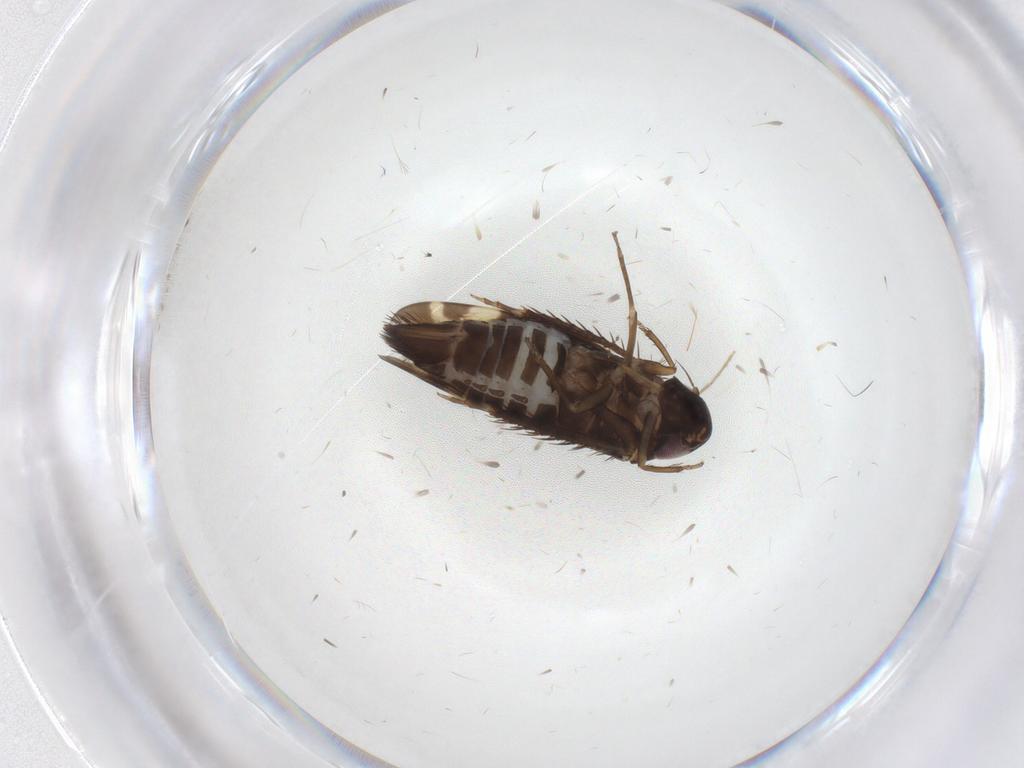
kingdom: Animalia
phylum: Arthropoda
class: Insecta
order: Hemiptera
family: Cicadellidae
